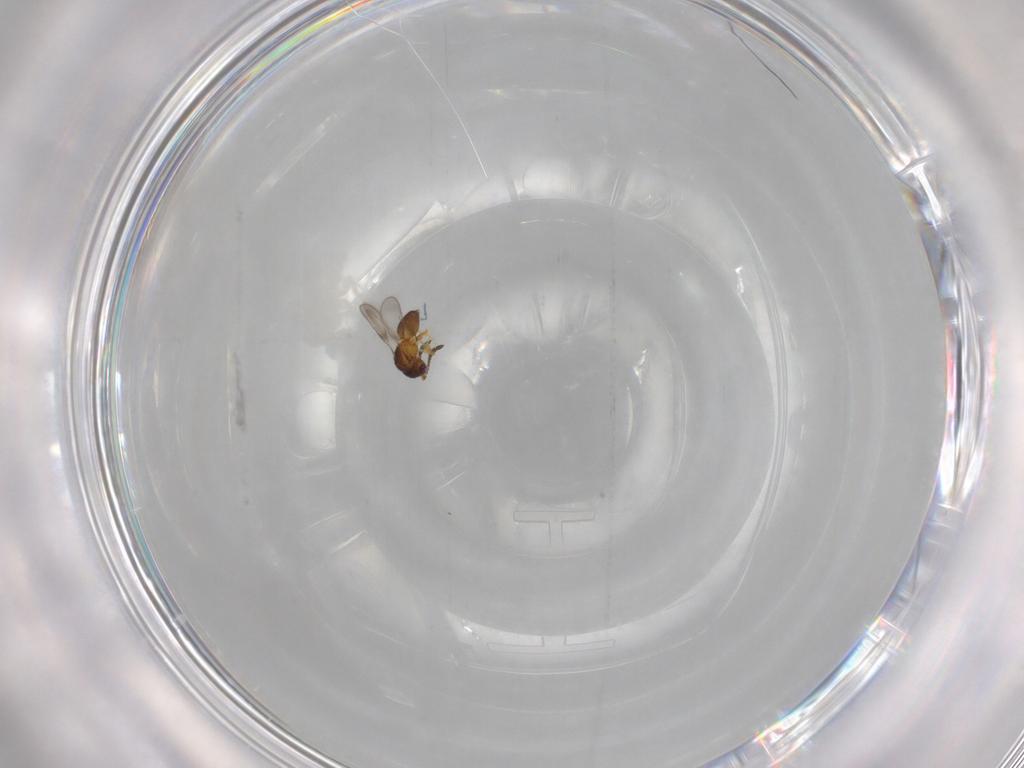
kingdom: Animalia
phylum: Arthropoda
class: Insecta
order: Hymenoptera
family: Ceraphronidae
